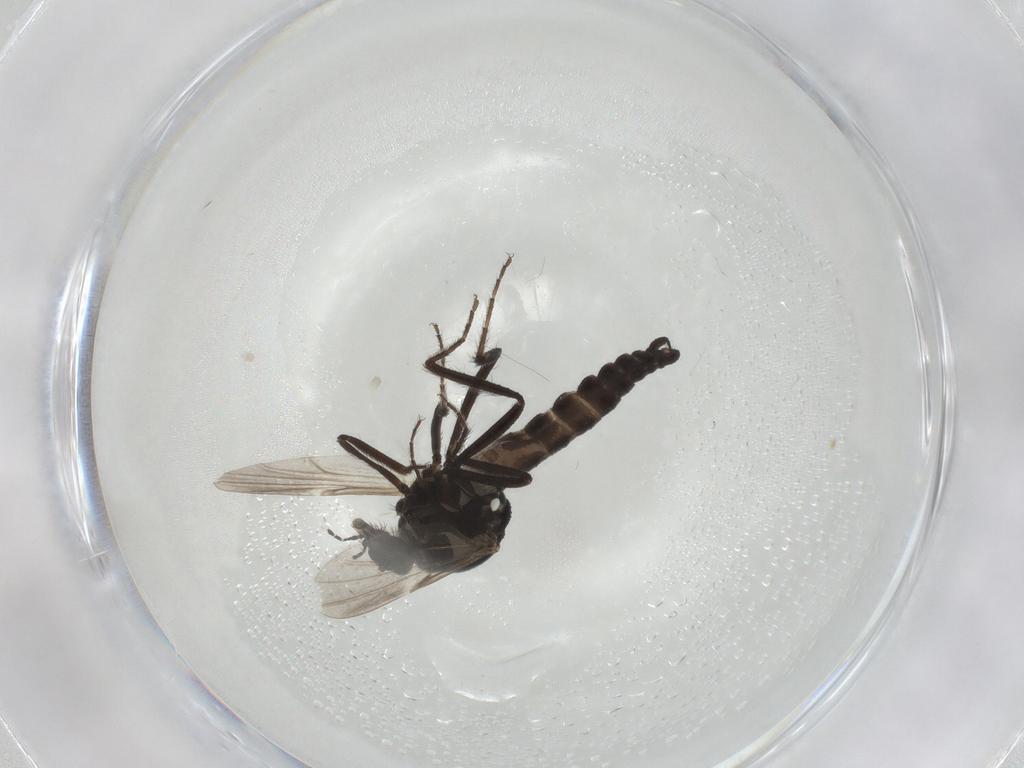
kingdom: Animalia
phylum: Arthropoda
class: Insecta
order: Diptera
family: Ceratopogonidae
